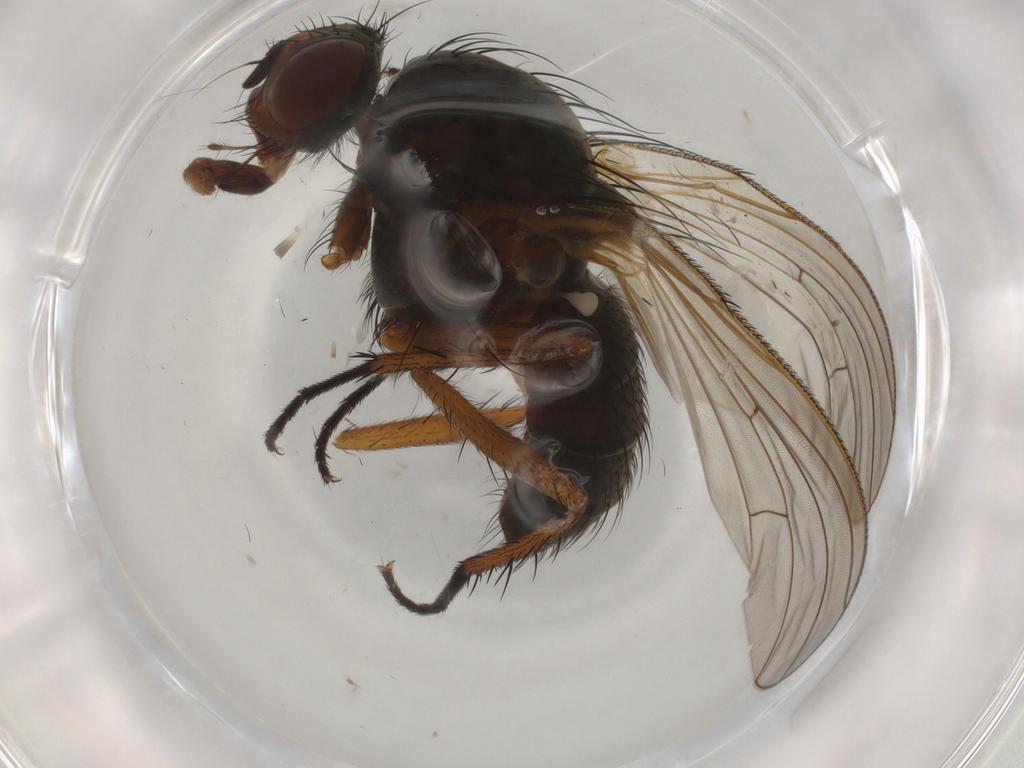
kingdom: Animalia
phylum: Arthropoda
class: Insecta
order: Diptera
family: Anthomyiidae
